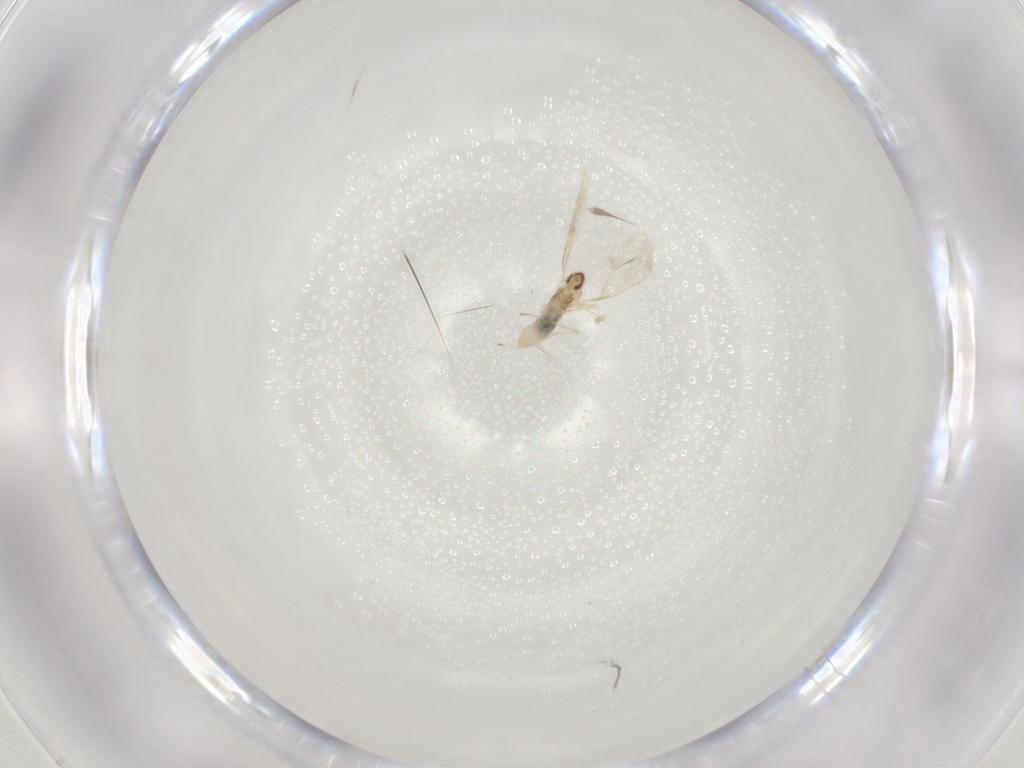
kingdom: Animalia
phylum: Arthropoda
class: Insecta
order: Diptera
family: Cecidomyiidae
